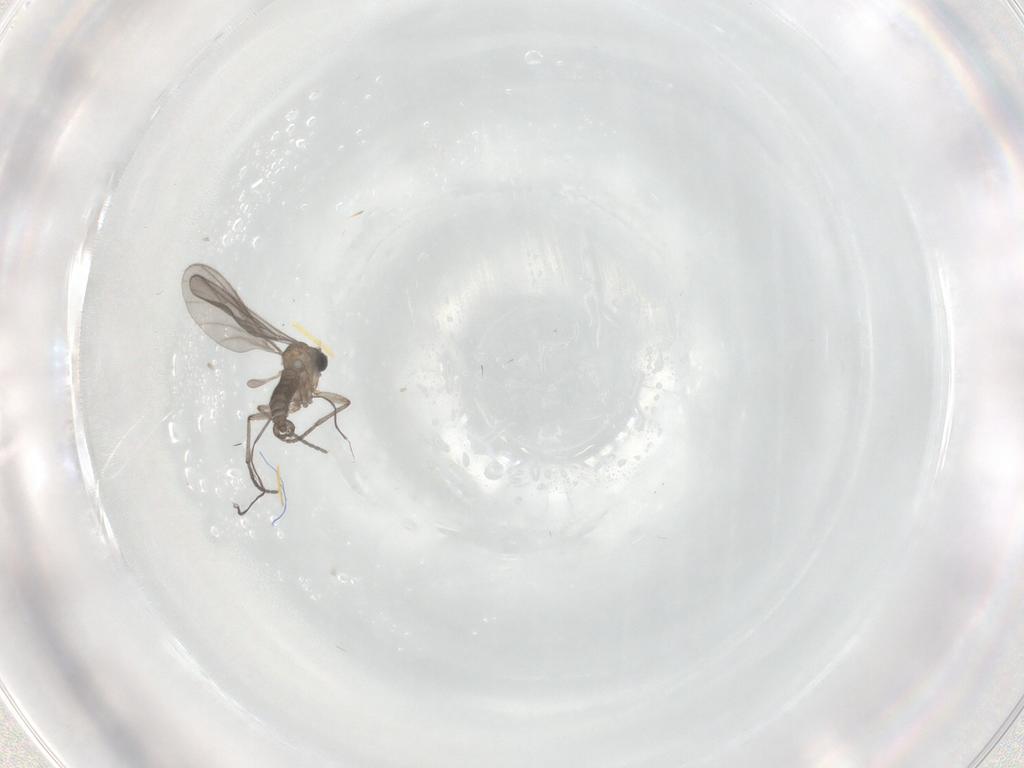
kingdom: Animalia
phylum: Arthropoda
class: Insecta
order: Diptera
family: Sciaridae
